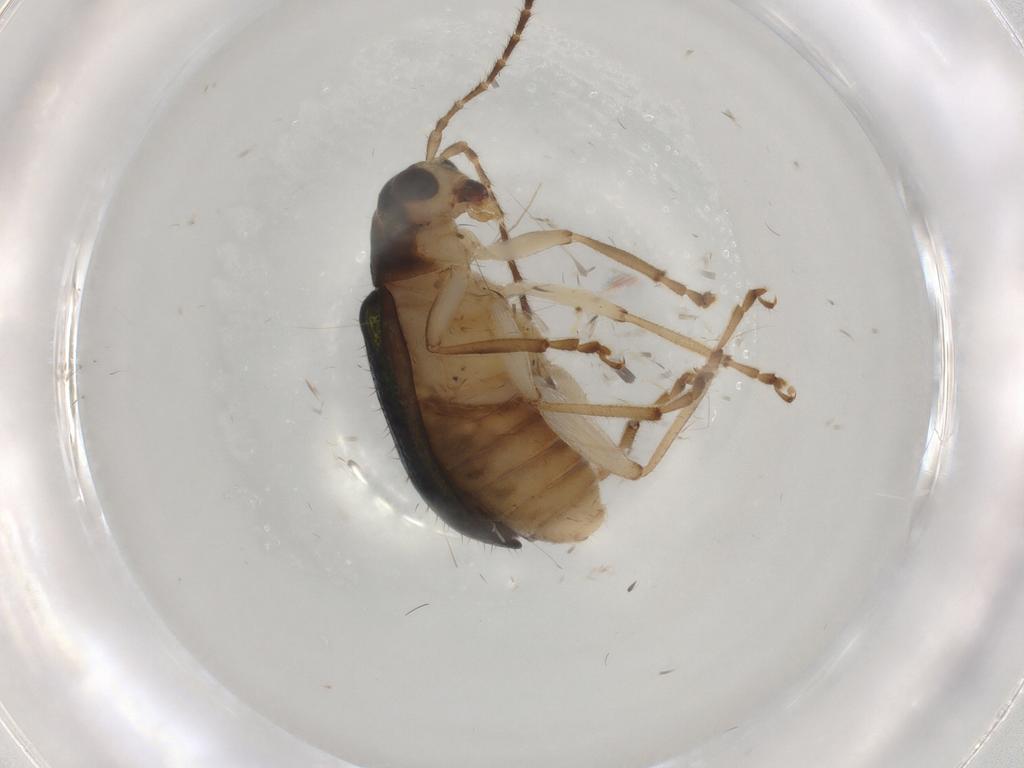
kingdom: Animalia
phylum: Arthropoda
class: Insecta
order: Coleoptera
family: Chrysomelidae
